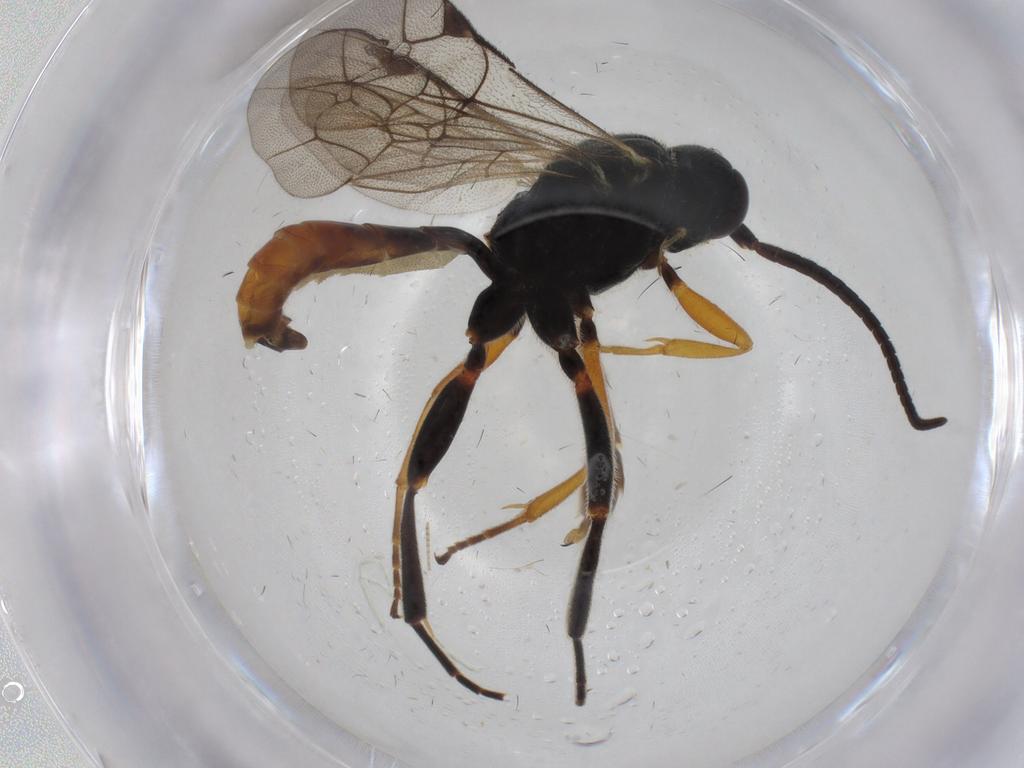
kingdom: Animalia
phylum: Arthropoda
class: Insecta
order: Hymenoptera
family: Ichneumonidae
